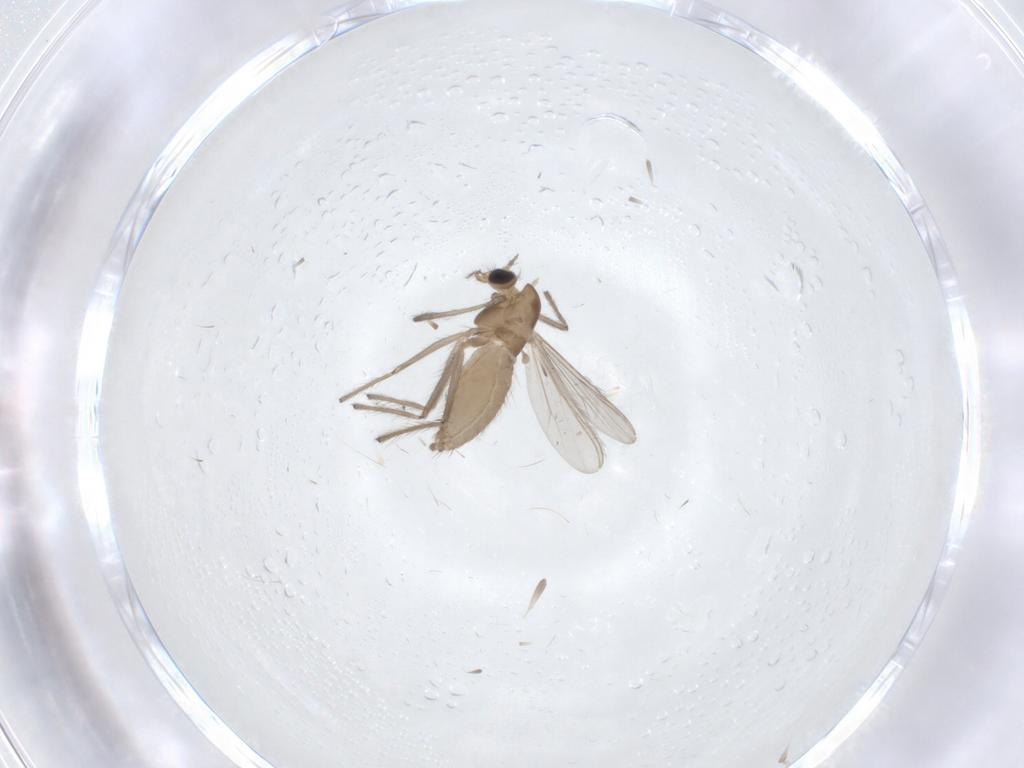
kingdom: Animalia
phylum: Arthropoda
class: Insecta
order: Diptera
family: Chironomidae
